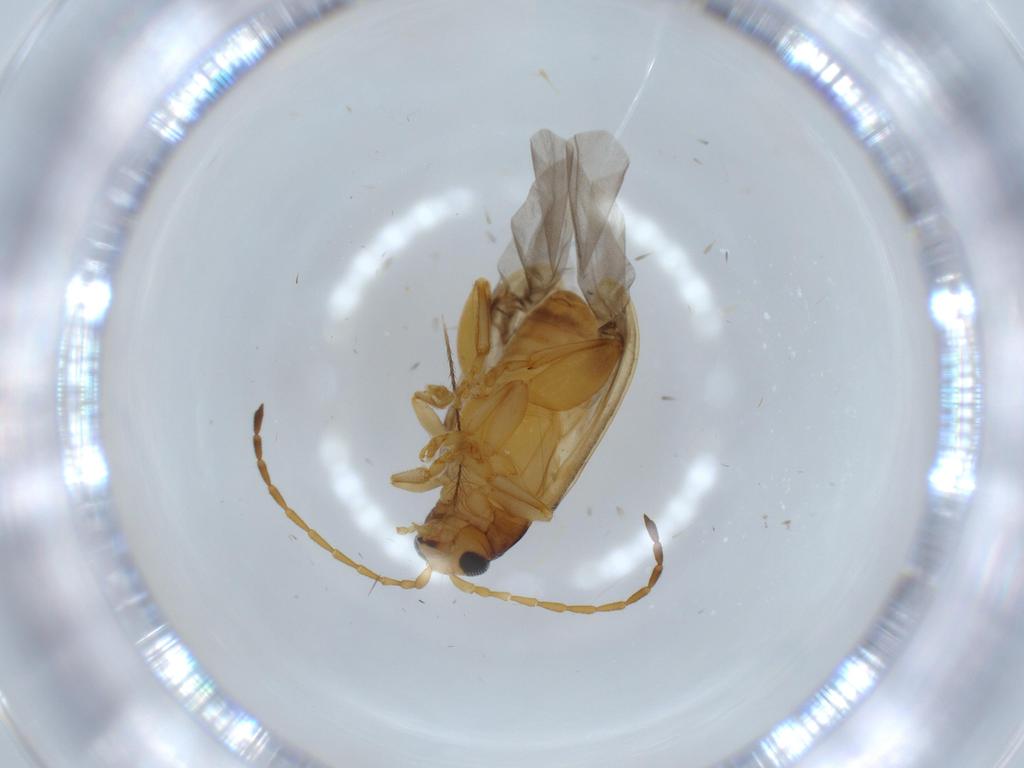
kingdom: Animalia
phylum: Arthropoda
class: Insecta
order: Coleoptera
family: Chrysomelidae
